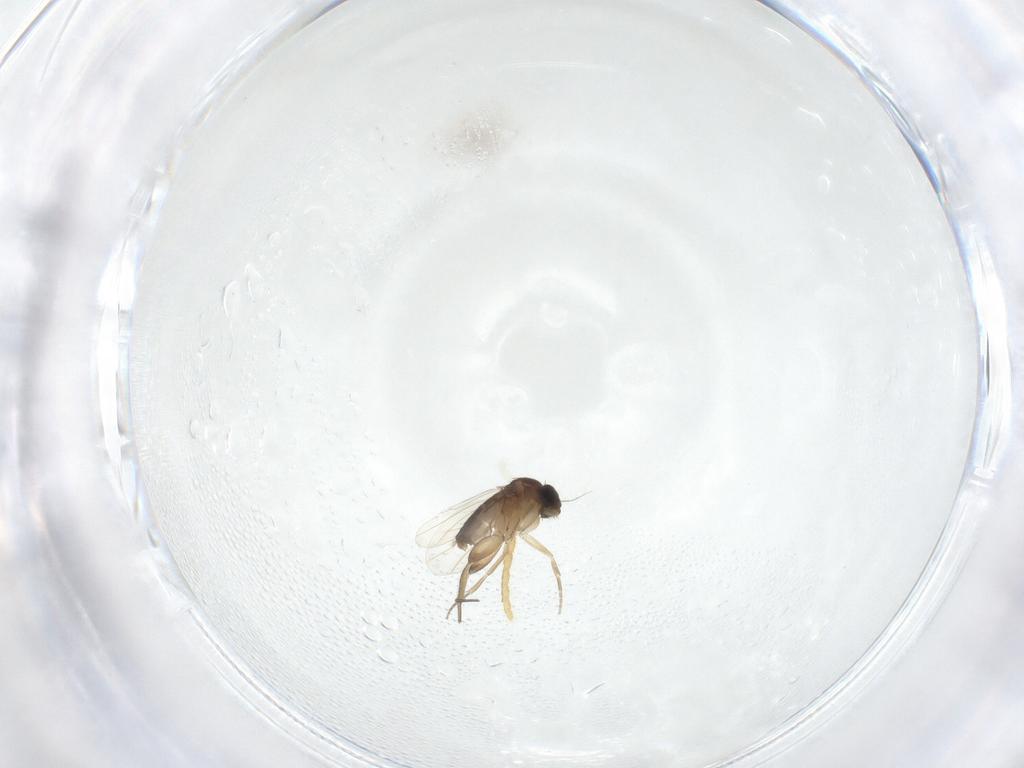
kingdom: Animalia
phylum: Arthropoda
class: Insecta
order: Diptera
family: Phoridae
